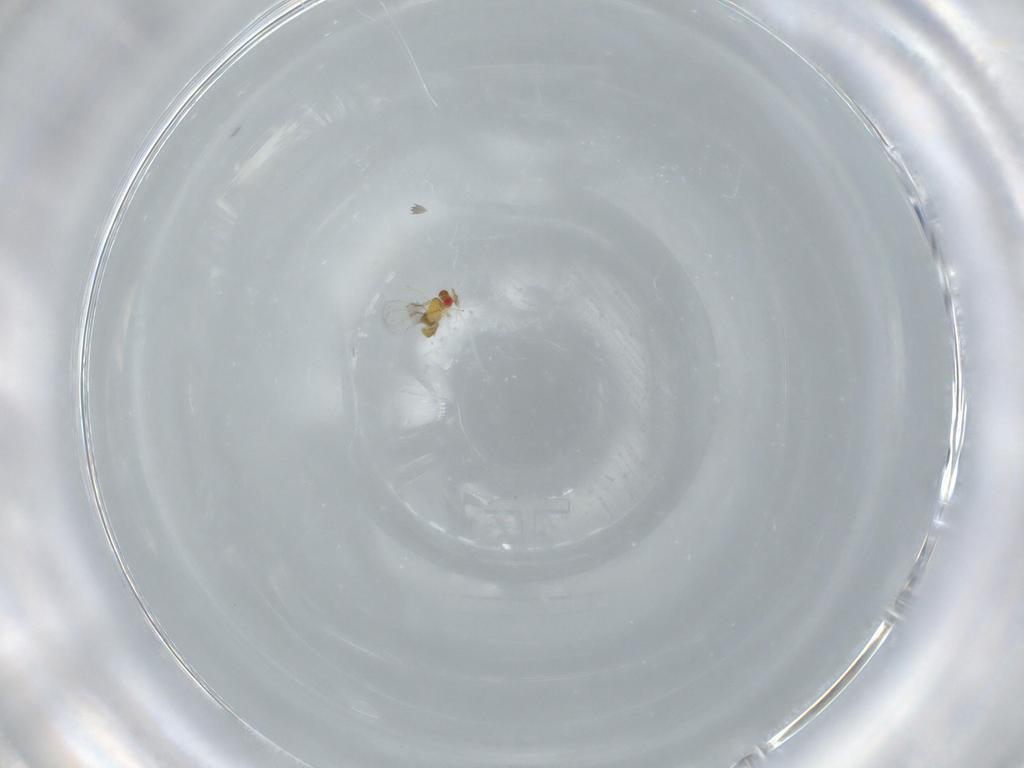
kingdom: Animalia
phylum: Arthropoda
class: Insecta
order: Hymenoptera
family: Trichogrammatidae
